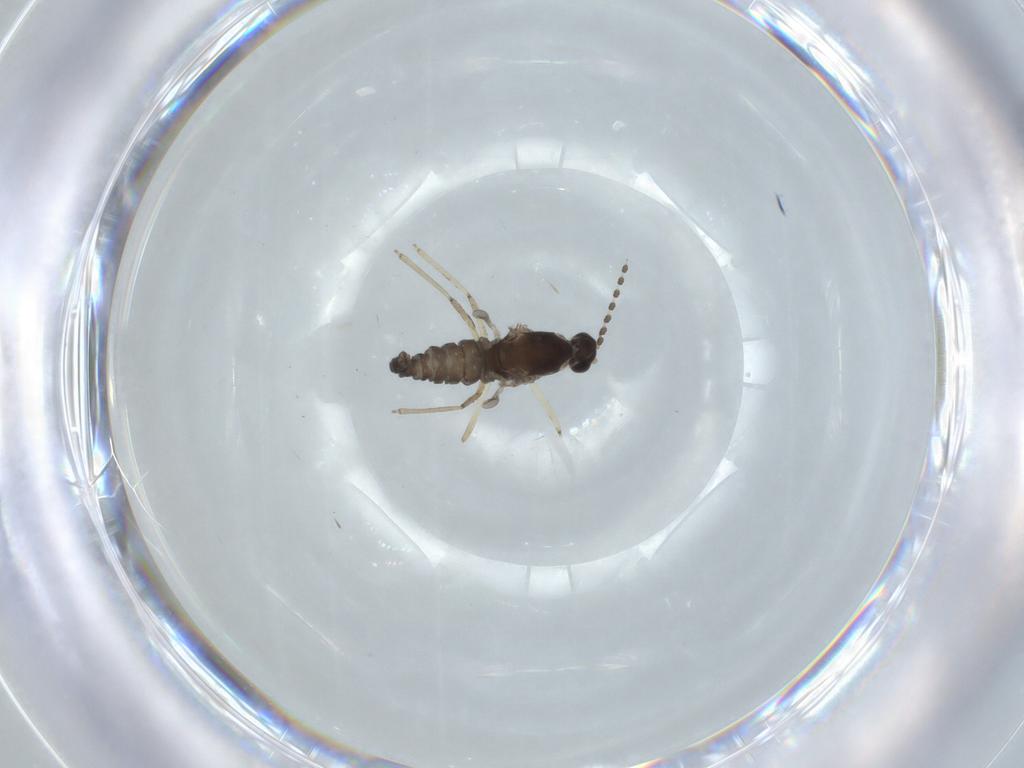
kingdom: Animalia
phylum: Arthropoda
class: Insecta
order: Diptera
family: Cecidomyiidae
